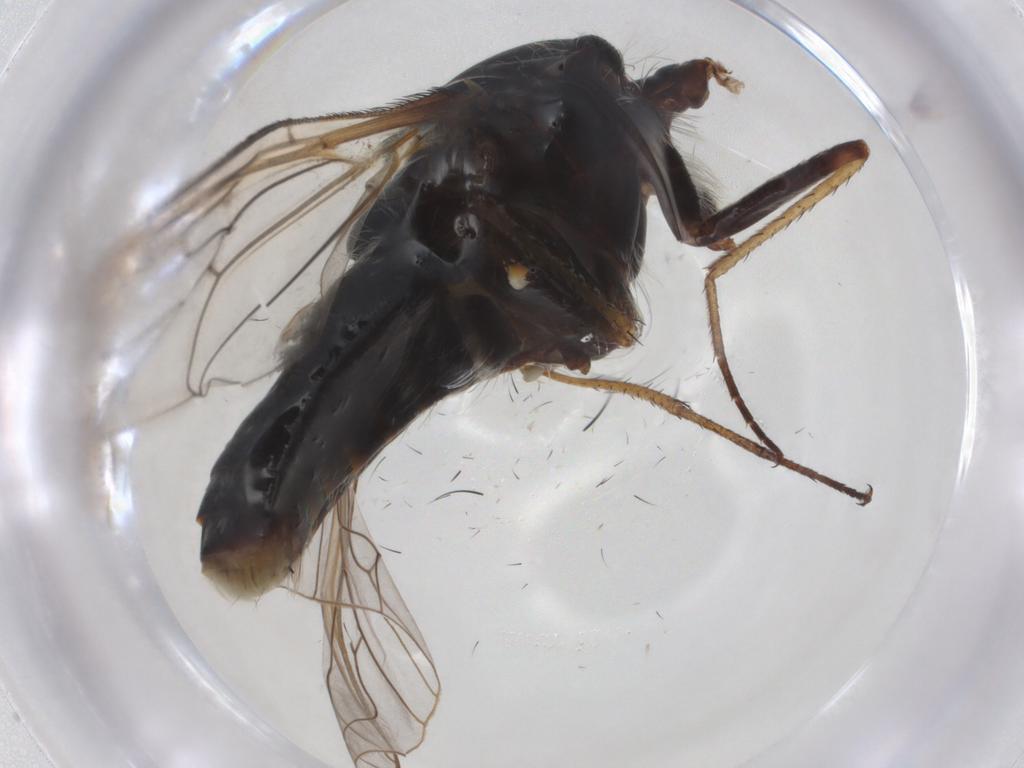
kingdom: Animalia
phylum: Arthropoda
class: Insecta
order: Diptera
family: Bombyliidae
